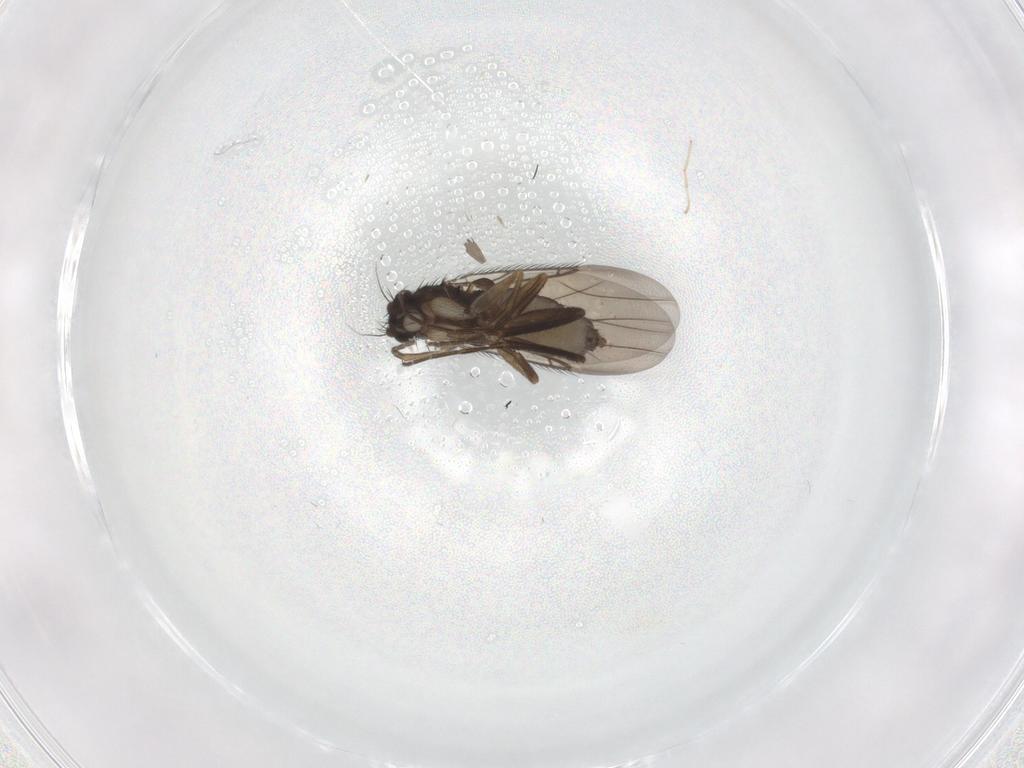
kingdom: Animalia
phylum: Arthropoda
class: Insecta
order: Diptera
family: Phoridae
